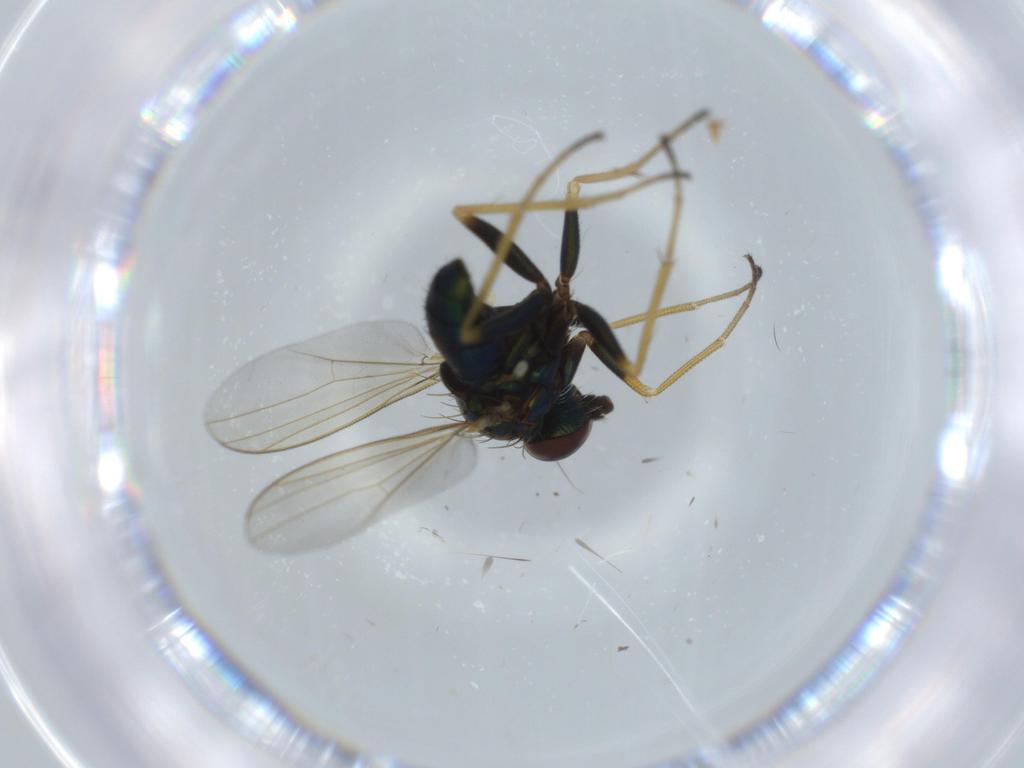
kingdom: Animalia
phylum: Arthropoda
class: Insecta
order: Diptera
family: Dolichopodidae
